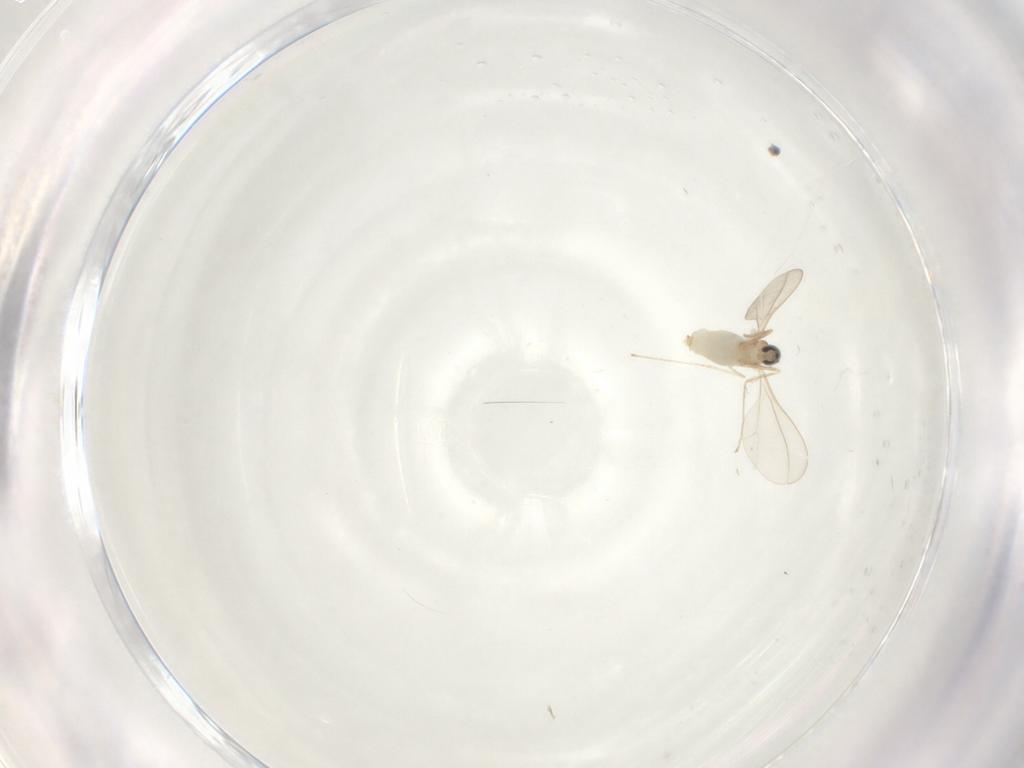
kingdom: Animalia
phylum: Arthropoda
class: Insecta
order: Diptera
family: Cecidomyiidae
